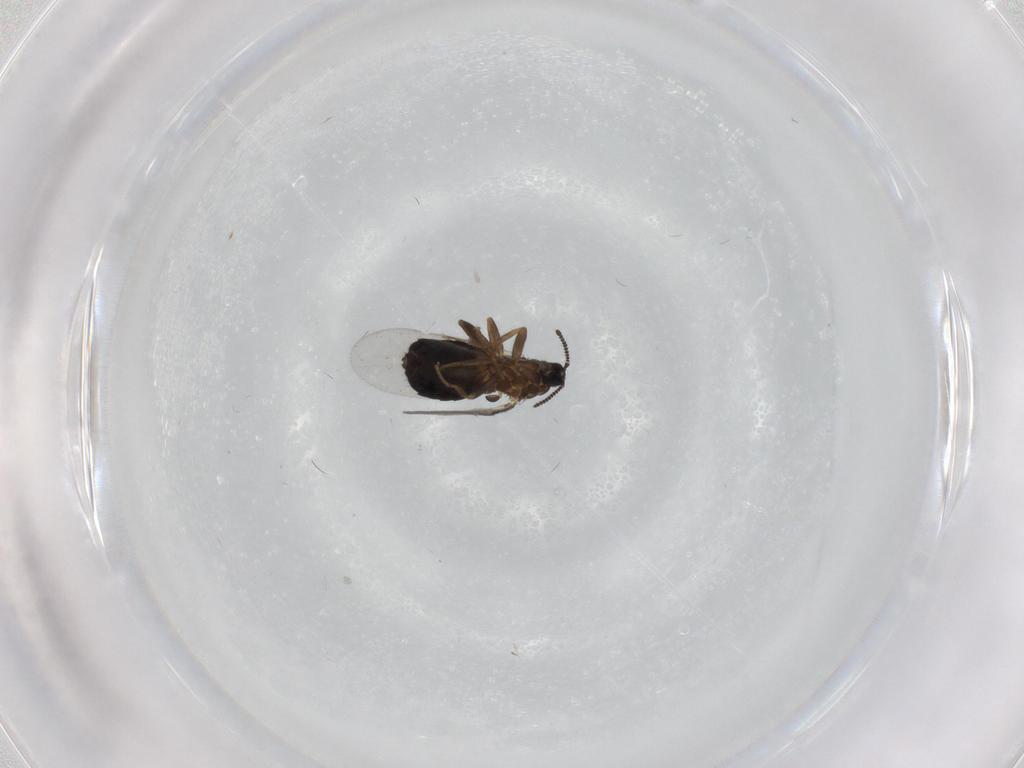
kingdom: Animalia
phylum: Arthropoda
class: Insecta
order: Diptera
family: Scatopsidae
